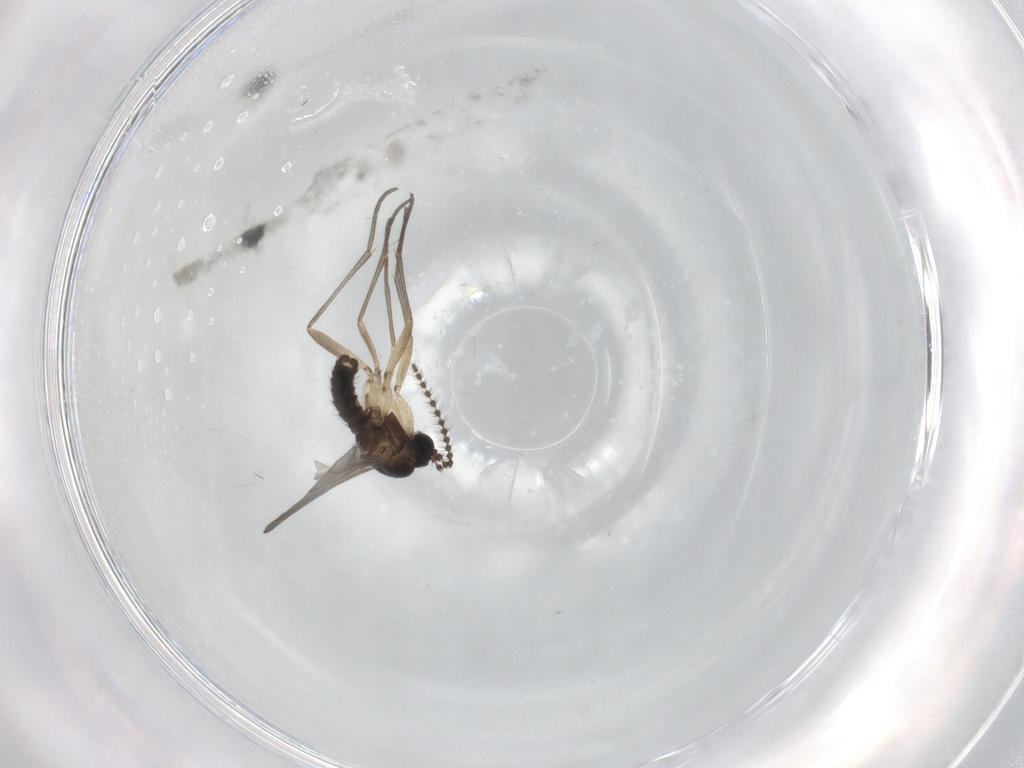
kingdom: Animalia
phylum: Arthropoda
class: Insecta
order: Diptera
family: Sciaridae
